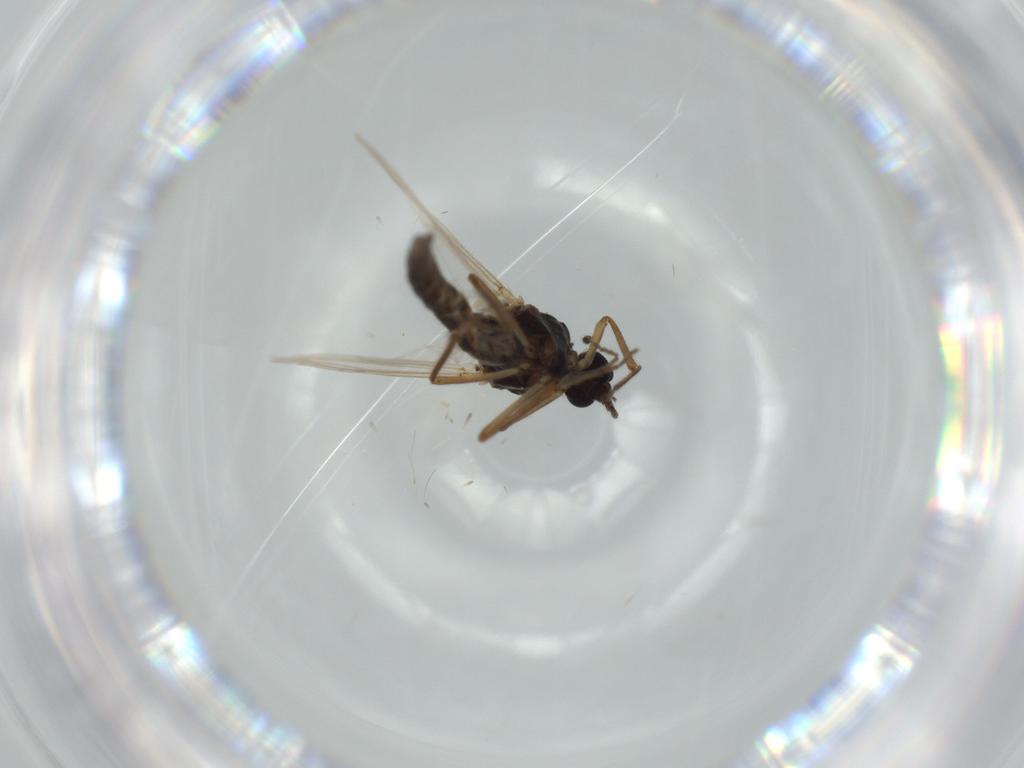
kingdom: Animalia
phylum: Arthropoda
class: Insecta
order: Diptera
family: Ceratopogonidae
